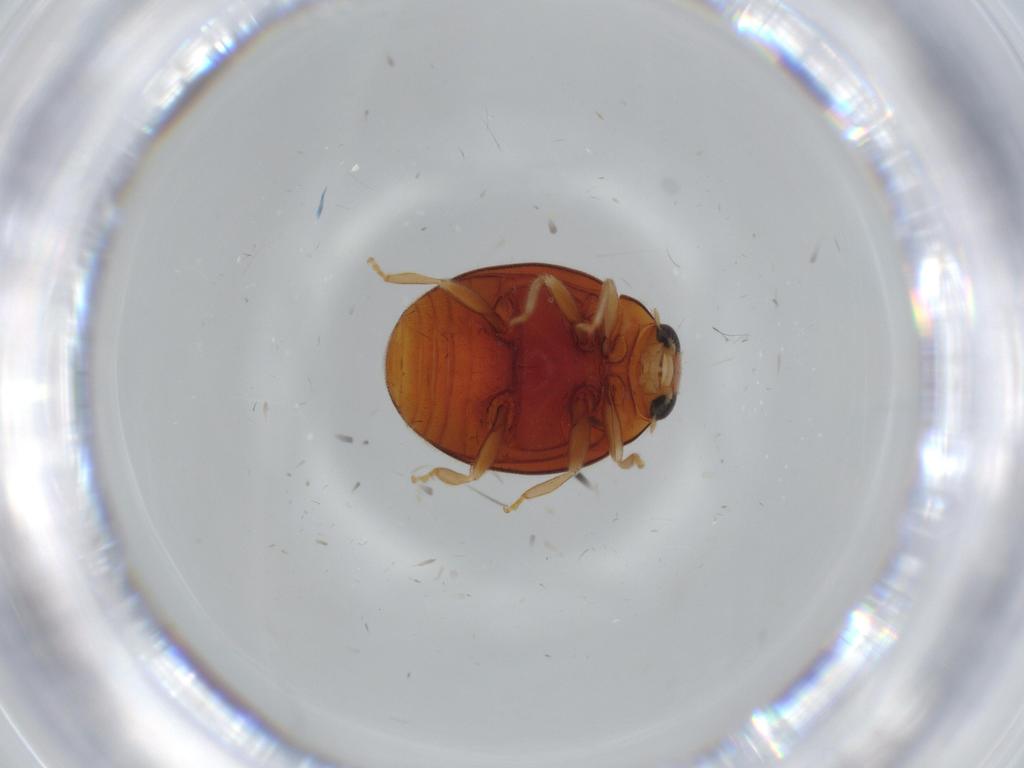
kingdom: Animalia
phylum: Arthropoda
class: Insecta
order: Coleoptera
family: Coccinellidae
